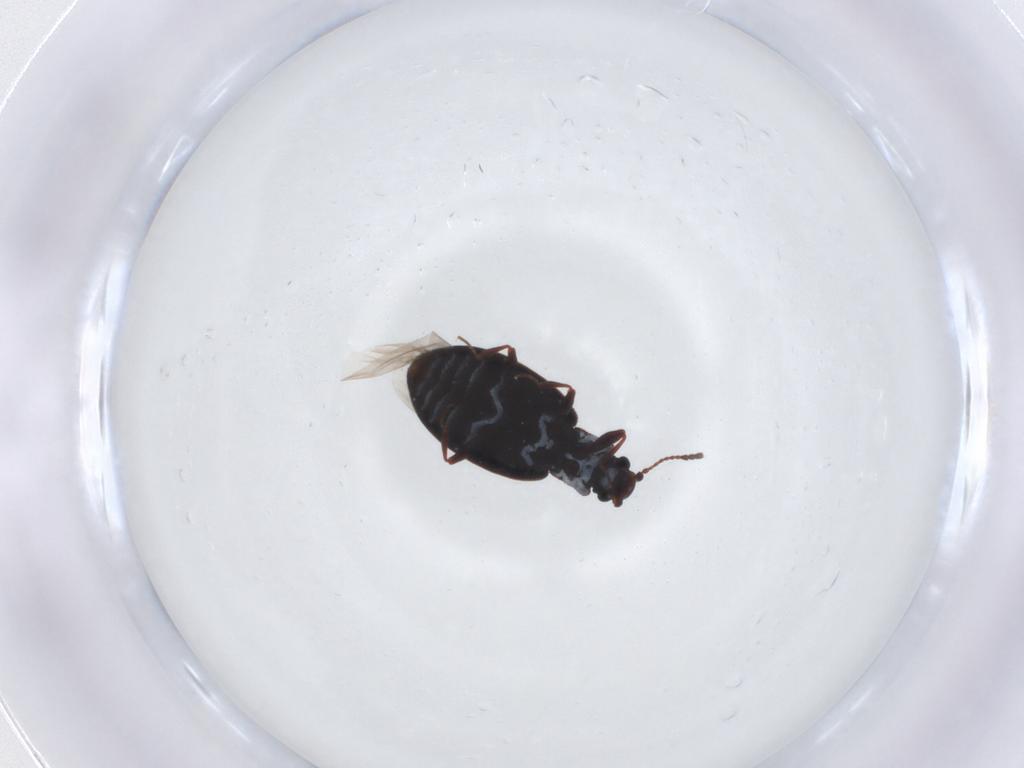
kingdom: Animalia
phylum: Arthropoda
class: Insecta
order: Coleoptera
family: Latridiidae
